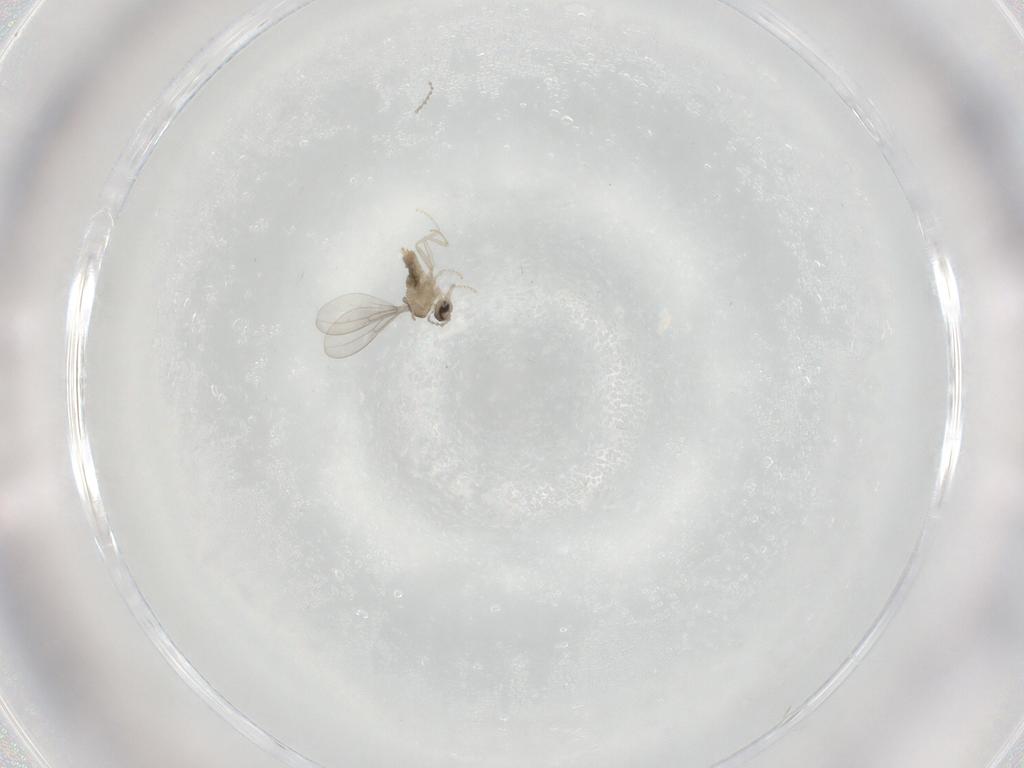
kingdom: Animalia
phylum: Arthropoda
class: Insecta
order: Diptera
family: Cecidomyiidae
